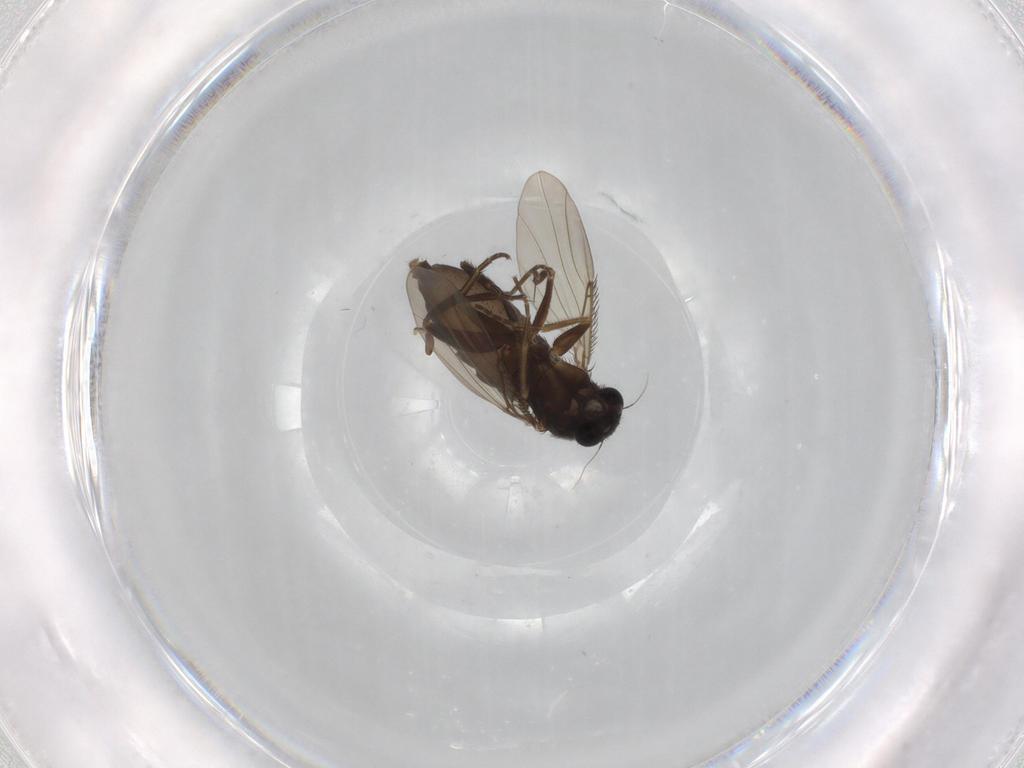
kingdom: Animalia
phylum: Arthropoda
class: Insecta
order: Diptera
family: Phoridae
